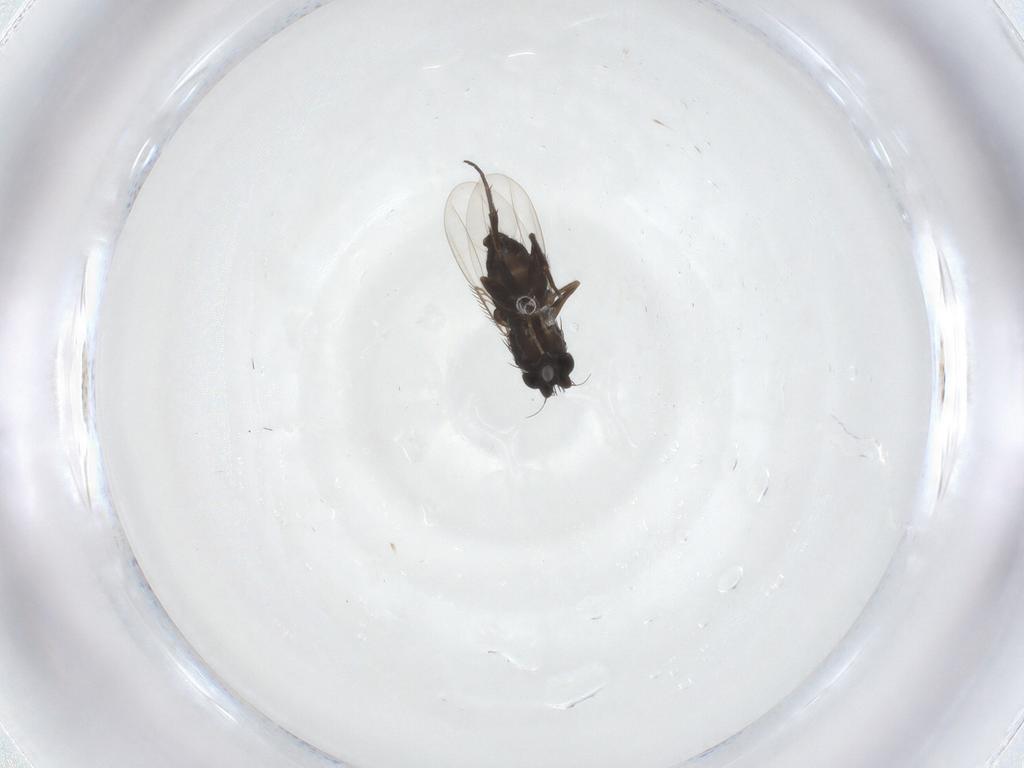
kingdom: Animalia
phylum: Arthropoda
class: Insecta
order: Diptera
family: Phoridae
